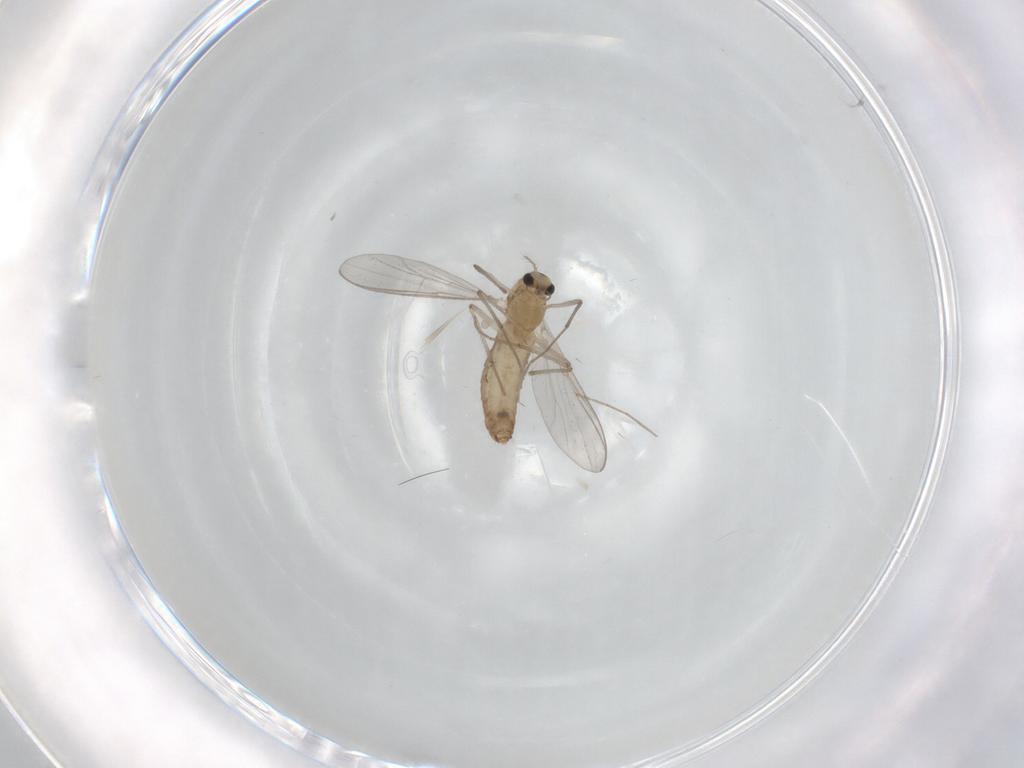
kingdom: Animalia
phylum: Arthropoda
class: Insecta
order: Diptera
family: Chironomidae
